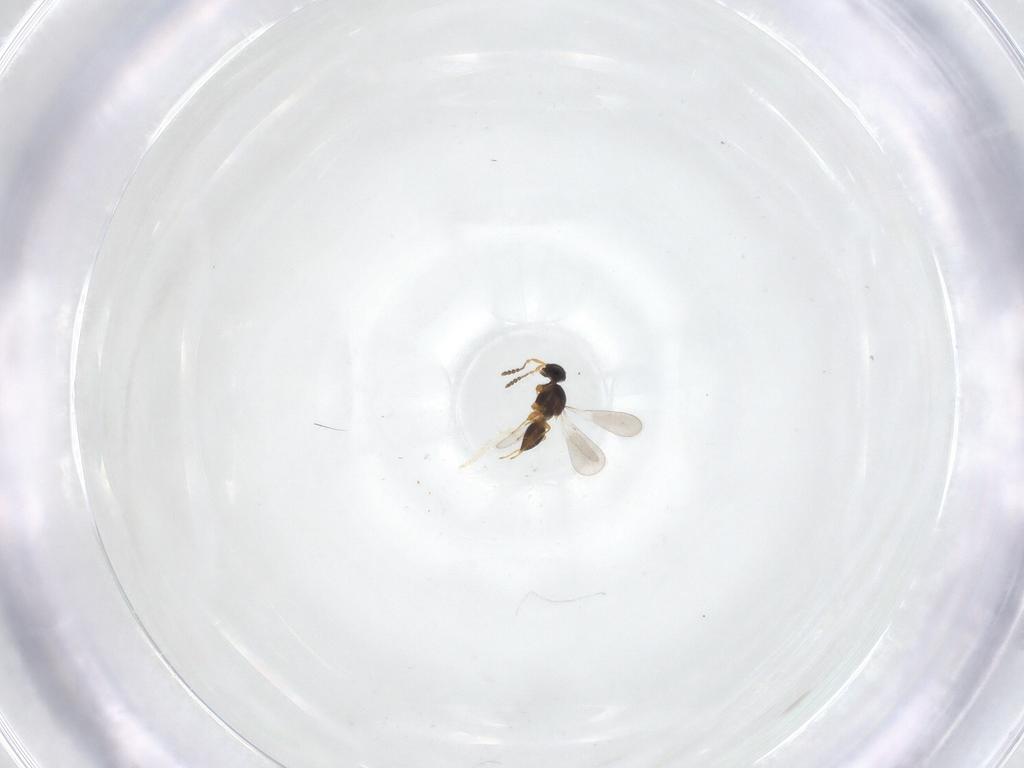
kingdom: Animalia
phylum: Arthropoda
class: Insecta
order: Hymenoptera
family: Platygastridae
